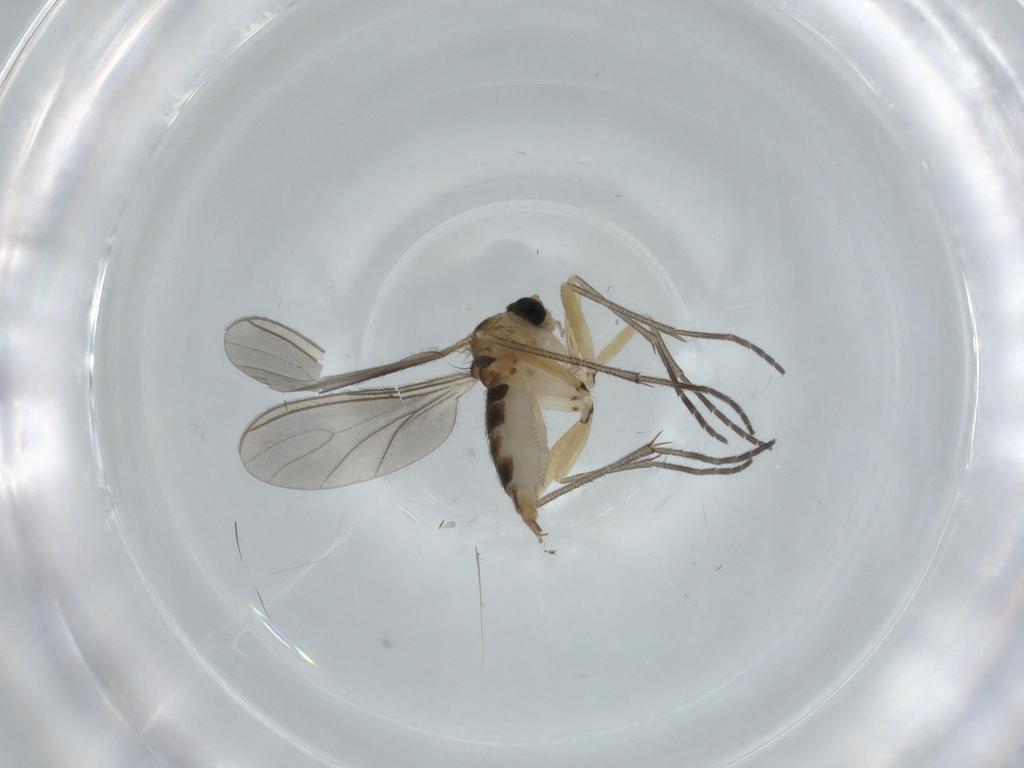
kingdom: Animalia
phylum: Arthropoda
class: Insecta
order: Diptera
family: Sciaridae
